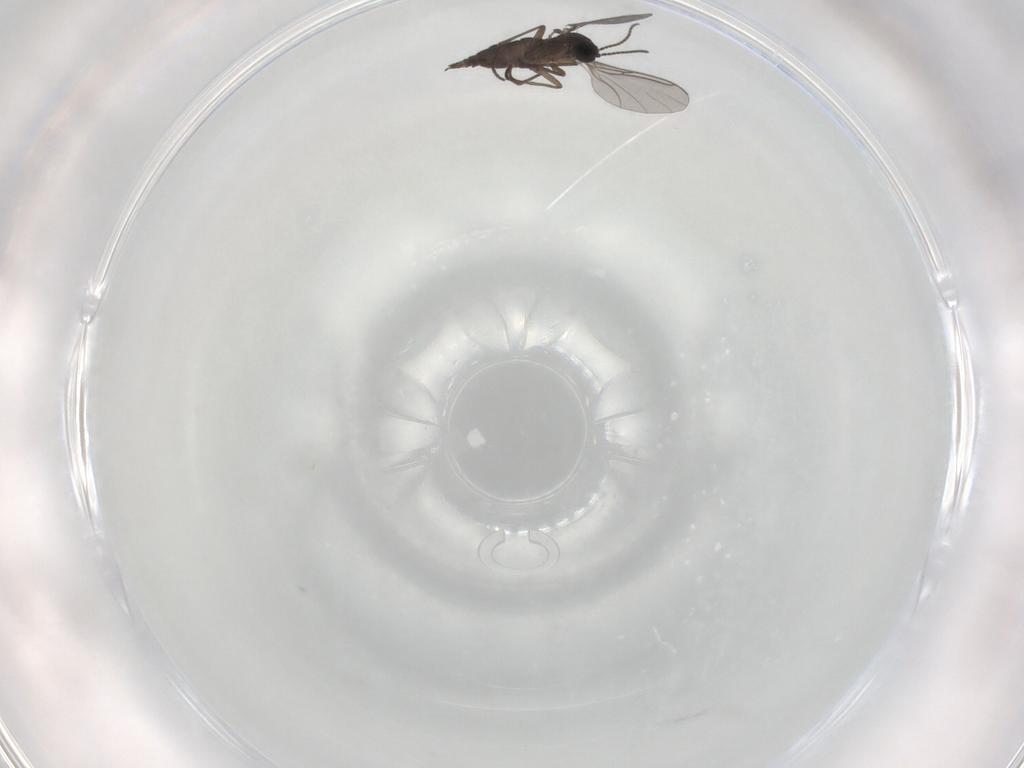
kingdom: Animalia
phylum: Arthropoda
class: Insecta
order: Diptera
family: Sciaridae
